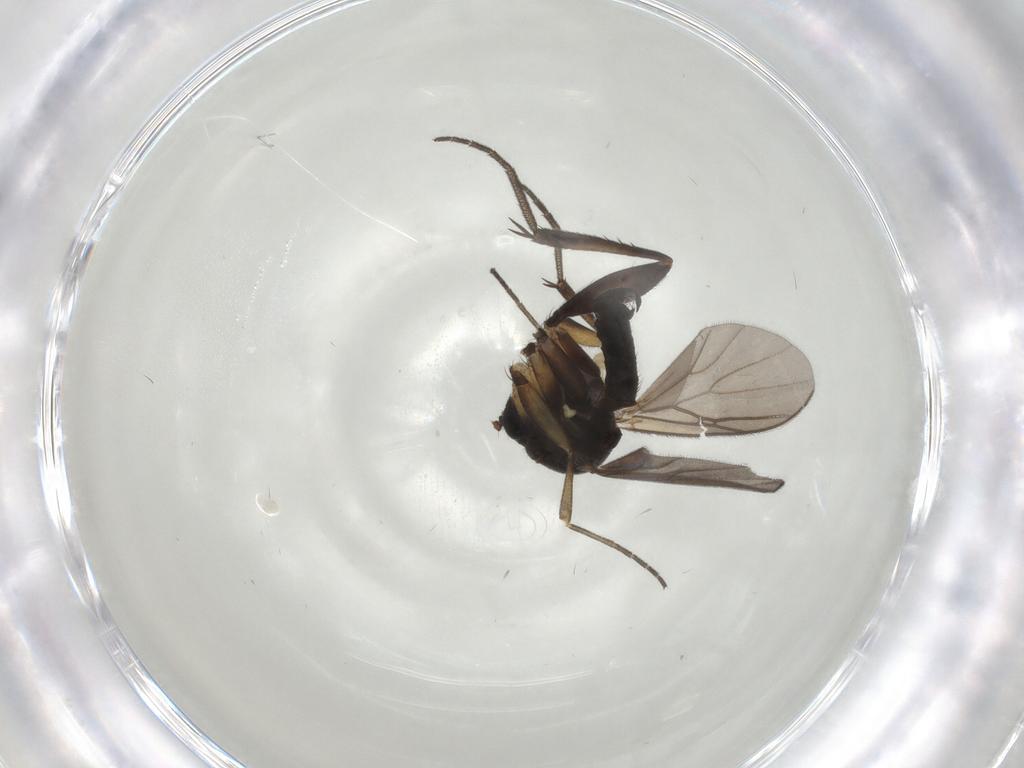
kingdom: Animalia
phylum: Arthropoda
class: Insecta
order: Diptera
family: Mycetophilidae
